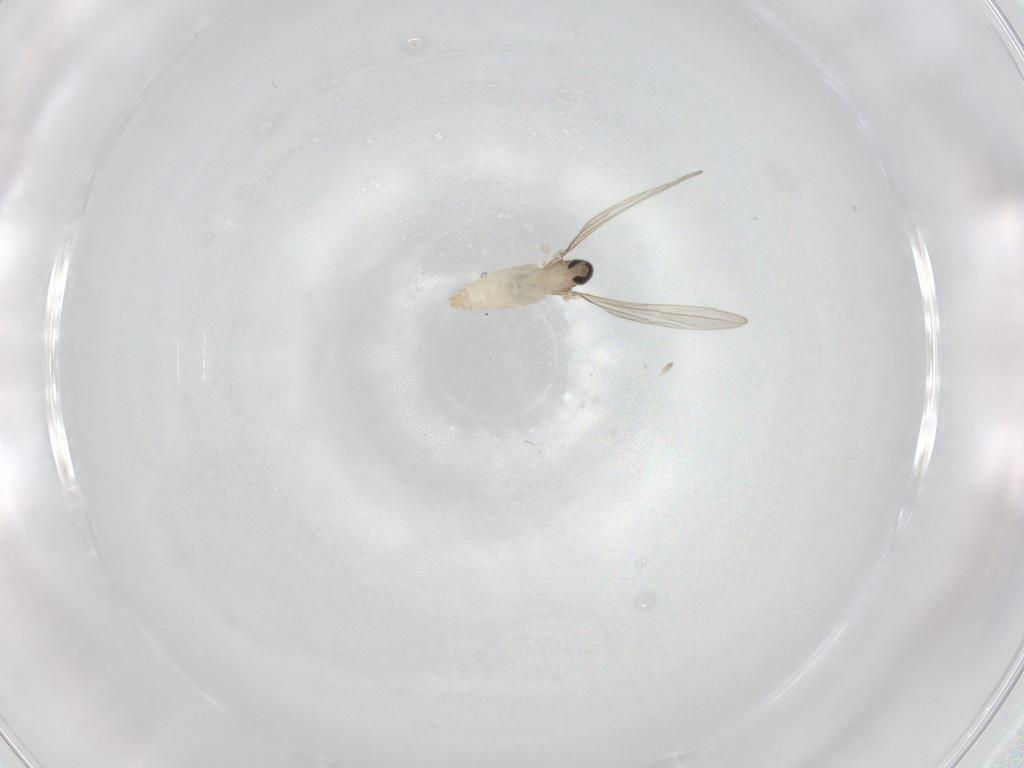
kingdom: Animalia
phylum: Arthropoda
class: Insecta
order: Diptera
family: Cecidomyiidae
